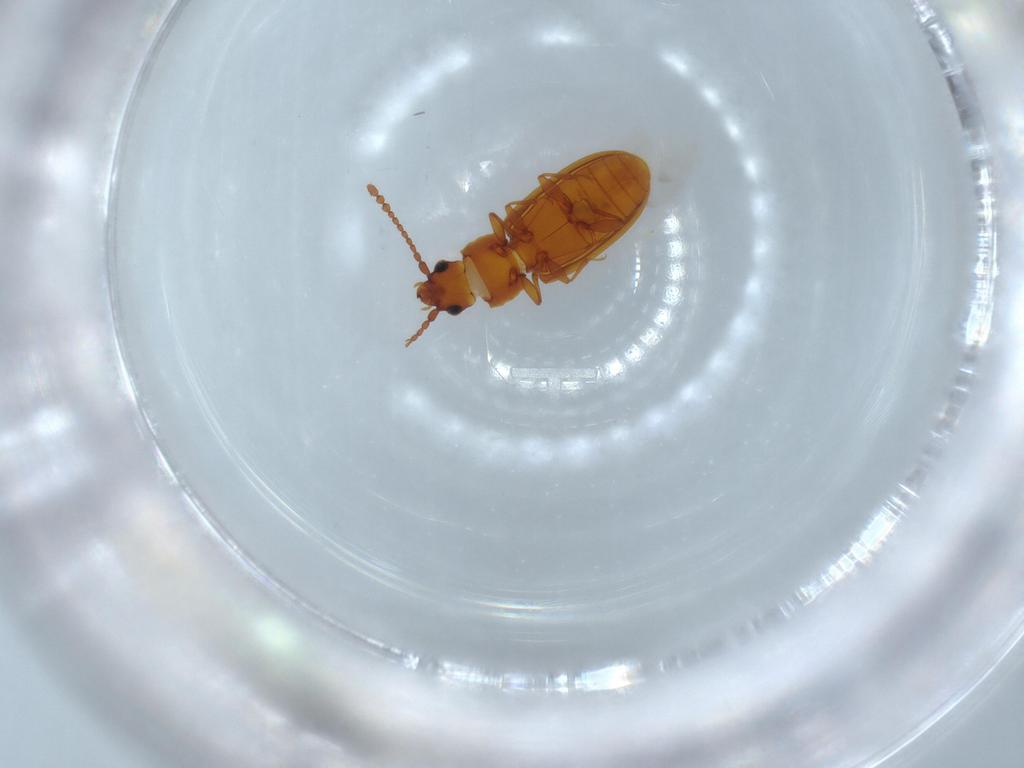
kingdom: Animalia
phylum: Arthropoda
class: Insecta
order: Coleoptera
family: Laemophloeidae
